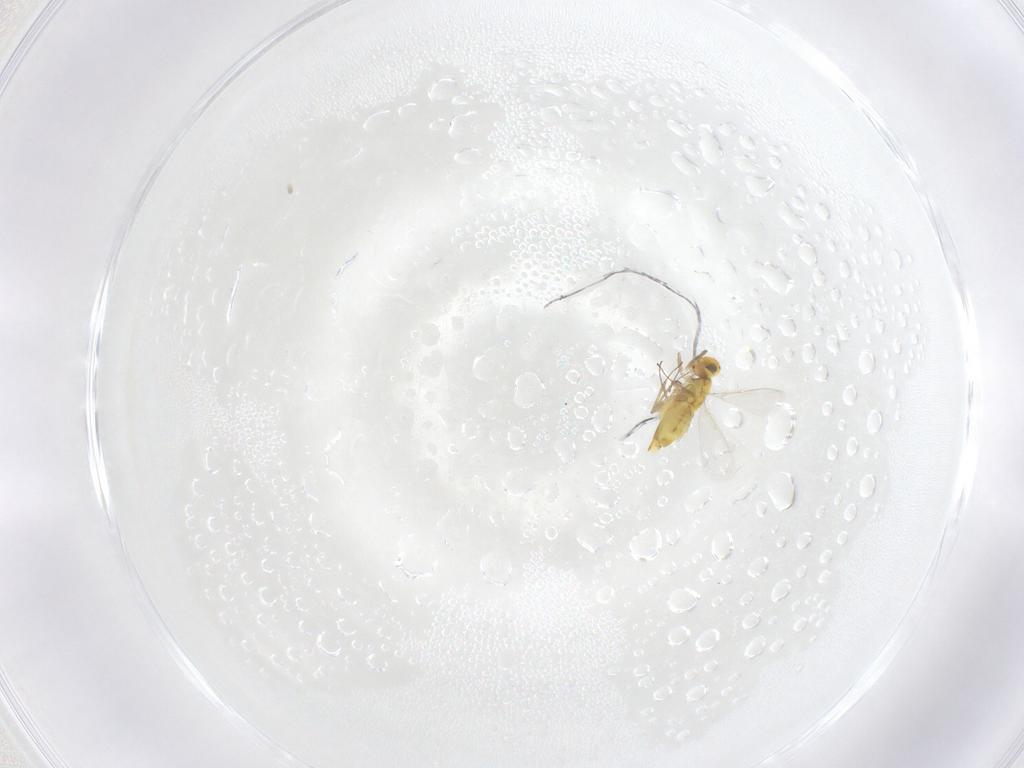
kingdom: Animalia
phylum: Arthropoda
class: Insecta
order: Hymenoptera
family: Aphelinidae
